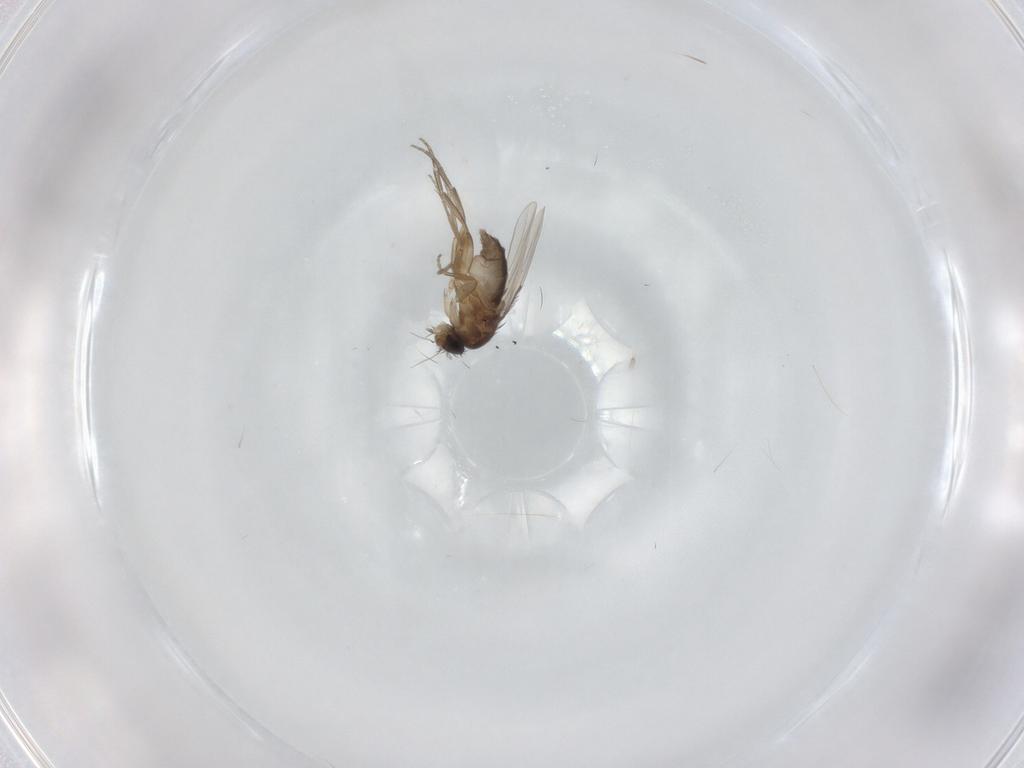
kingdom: Animalia
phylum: Arthropoda
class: Insecta
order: Diptera
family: Phoridae
